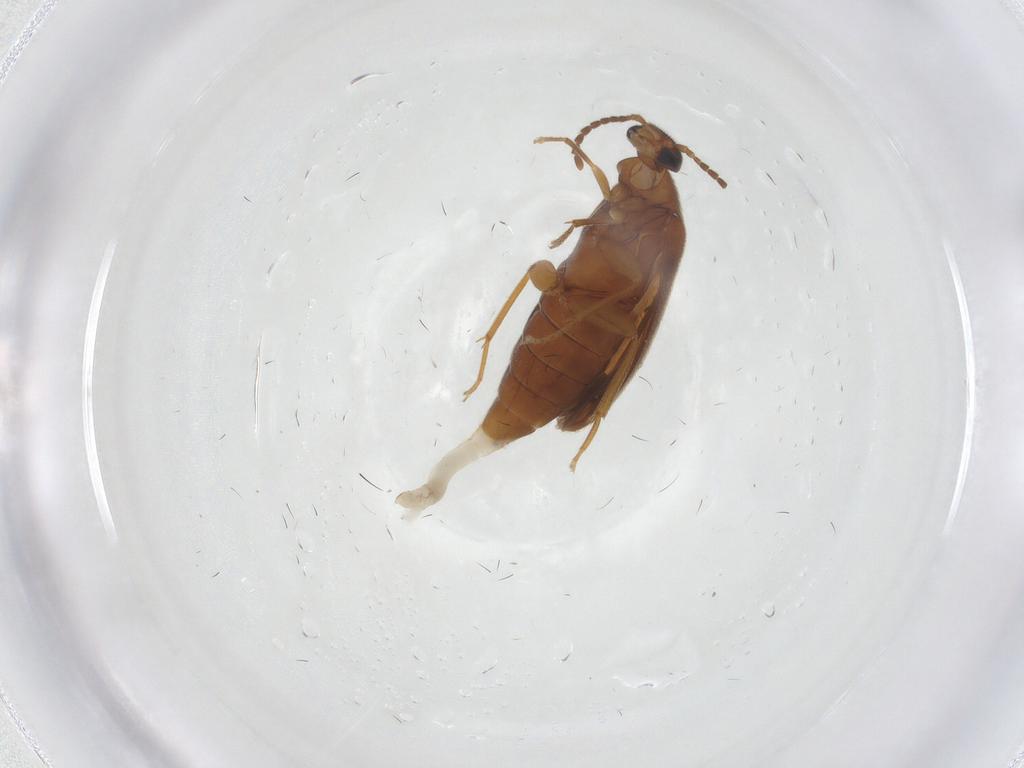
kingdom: Animalia
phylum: Arthropoda
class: Insecta
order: Coleoptera
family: Scraptiidae
